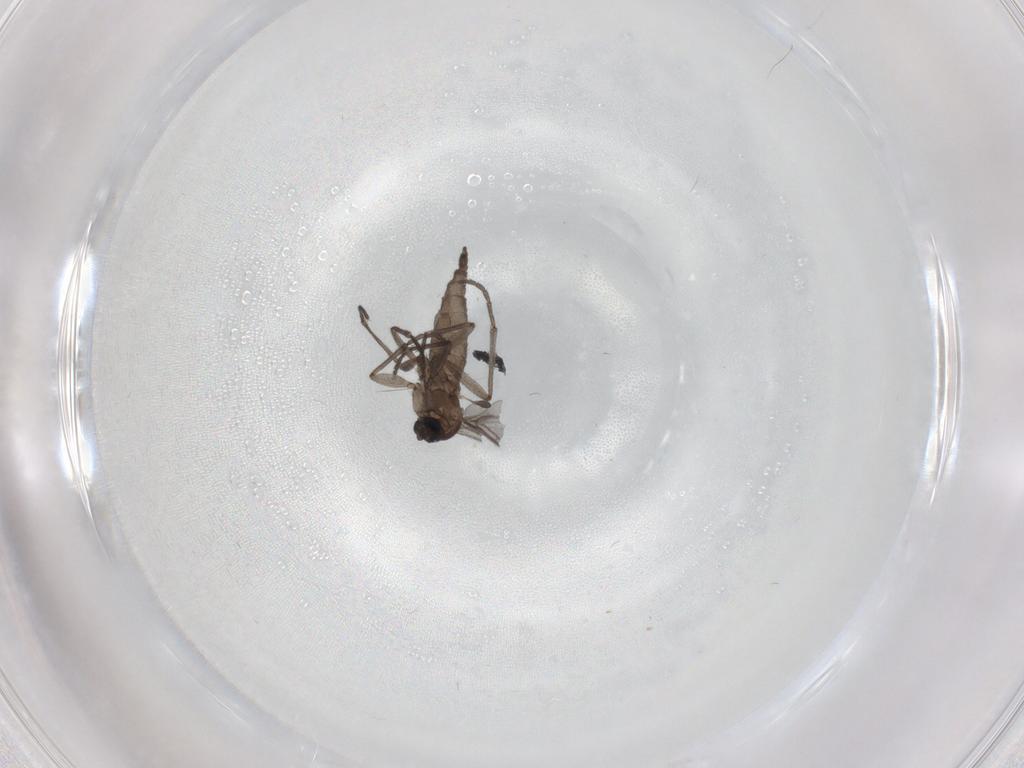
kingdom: Animalia
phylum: Arthropoda
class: Insecta
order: Diptera
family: Sciaridae
